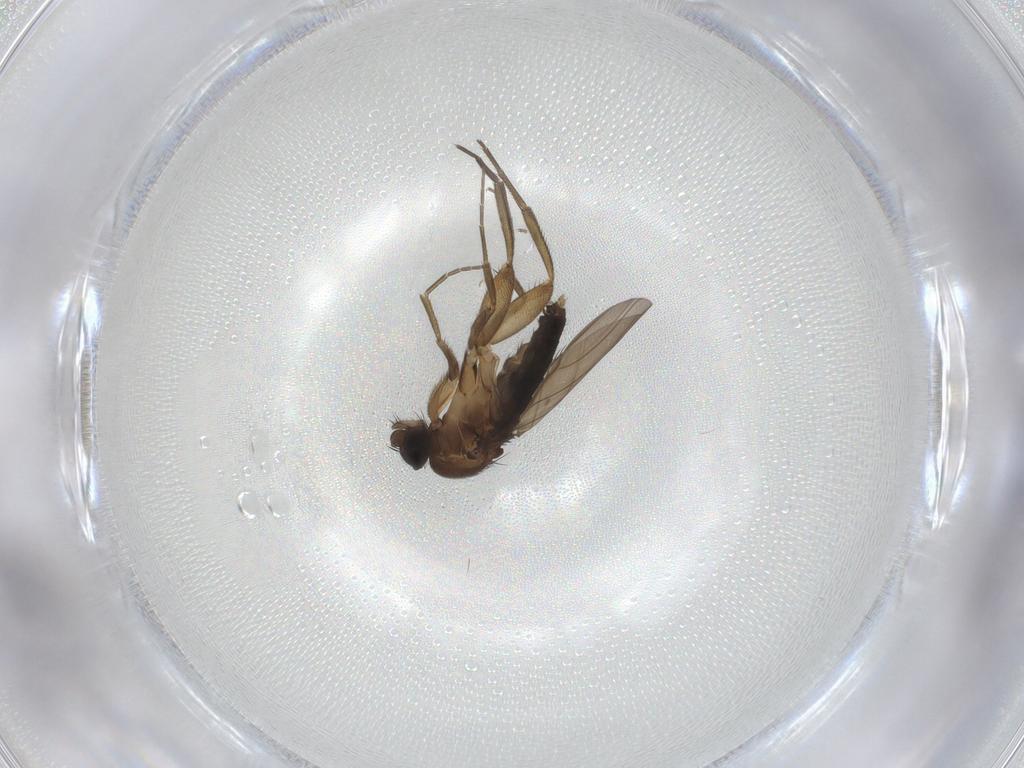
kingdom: Animalia
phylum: Arthropoda
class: Insecta
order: Diptera
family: Phoridae
